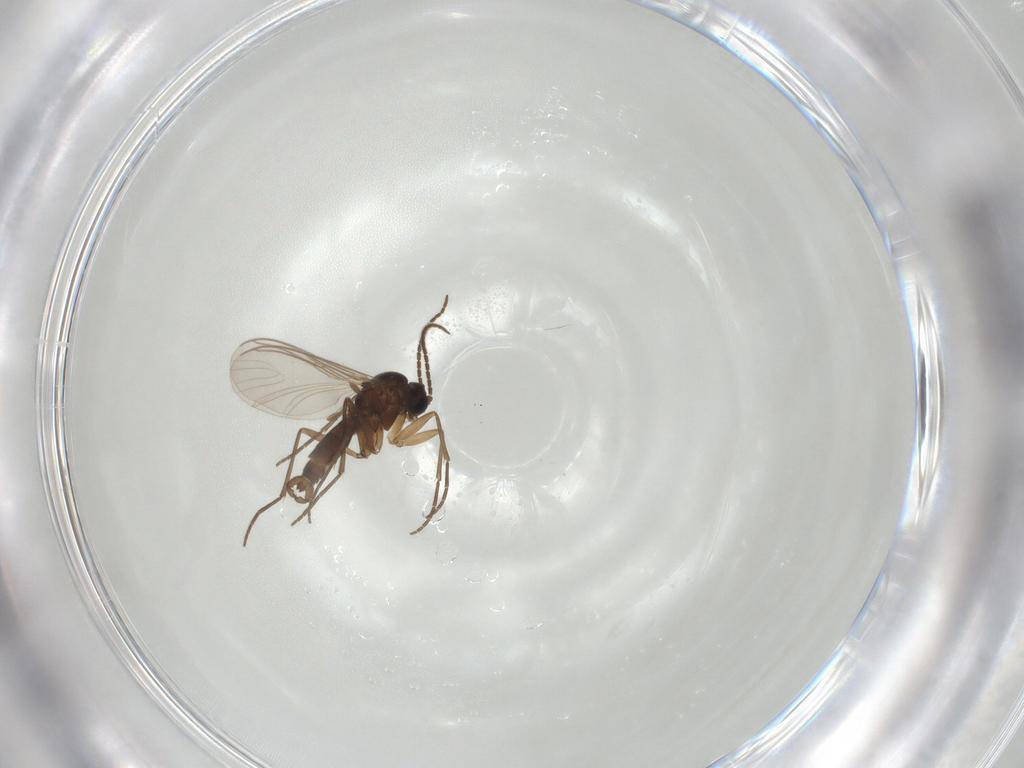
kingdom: Animalia
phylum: Arthropoda
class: Insecta
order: Diptera
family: Sciaridae
